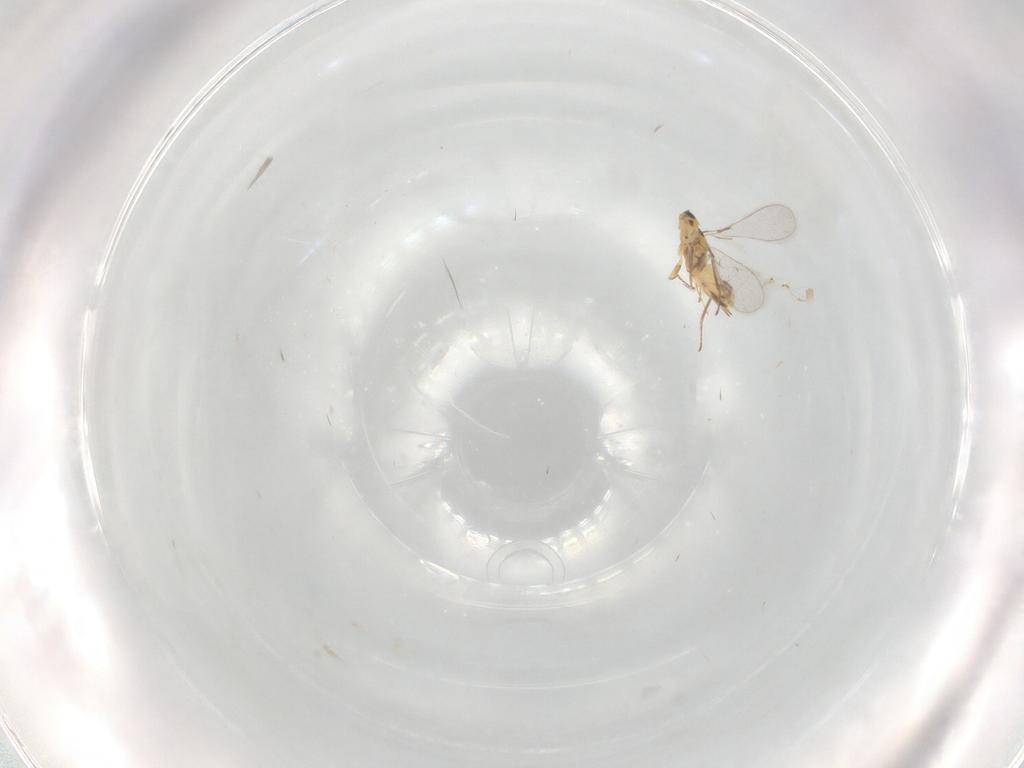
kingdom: Animalia
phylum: Arthropoda
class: Insecta
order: Hymenoptera
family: Mymaridae
